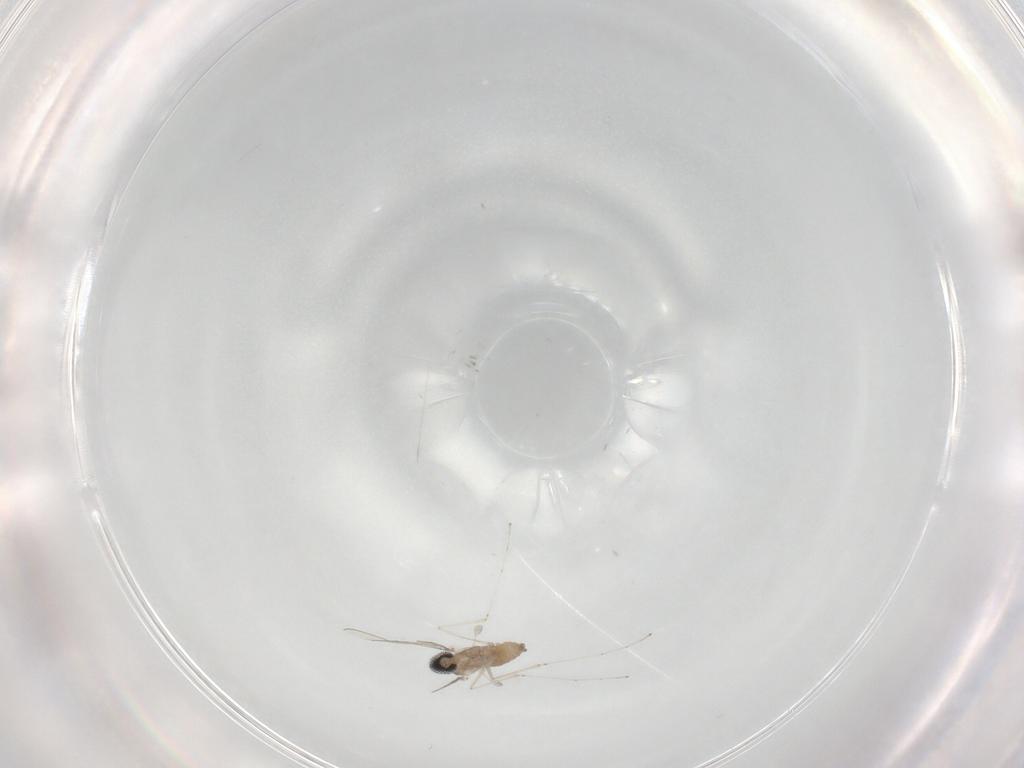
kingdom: Animalia
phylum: Arthropoda
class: Insecta
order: Diptera
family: Cecidomyiidae
